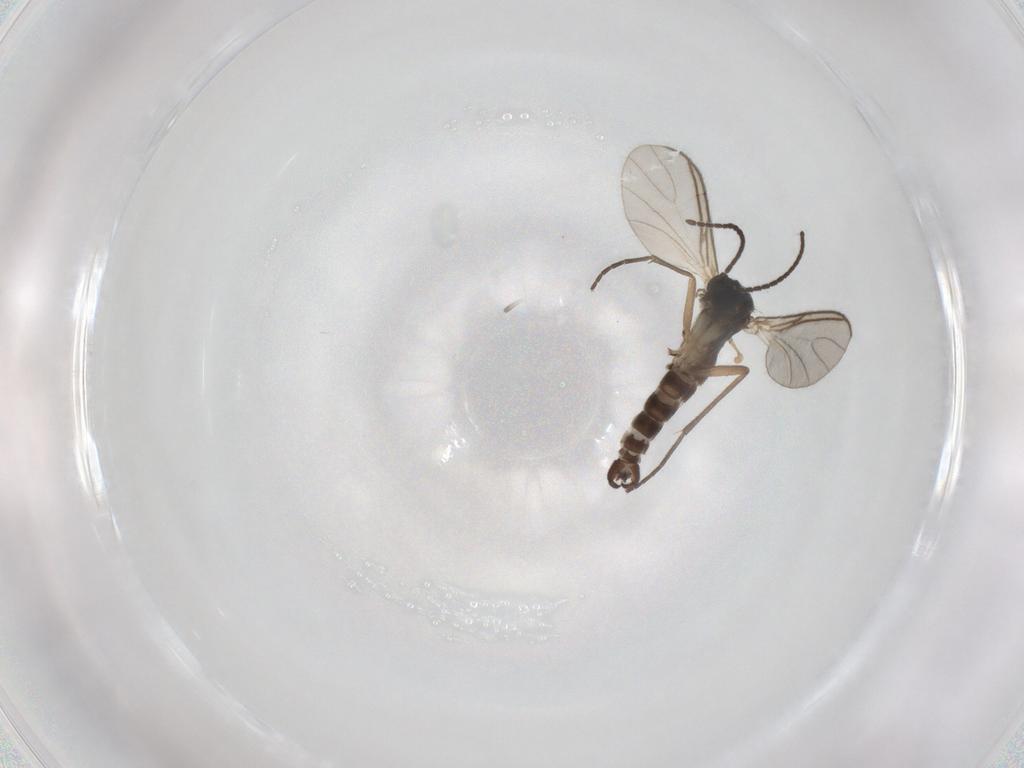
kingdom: Animalia
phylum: Arthropoda
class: Insecta
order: Diptera
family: Sciaridae
